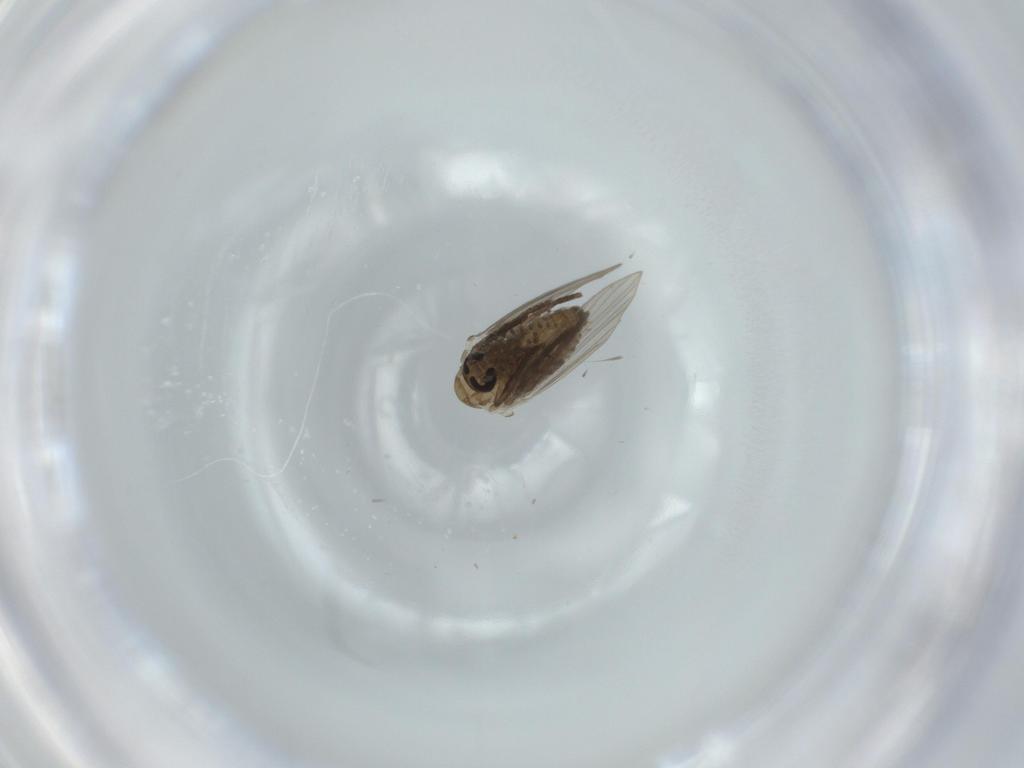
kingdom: Animalia
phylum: Arthropoda
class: Insecta
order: Diptera
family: Psychodidae
